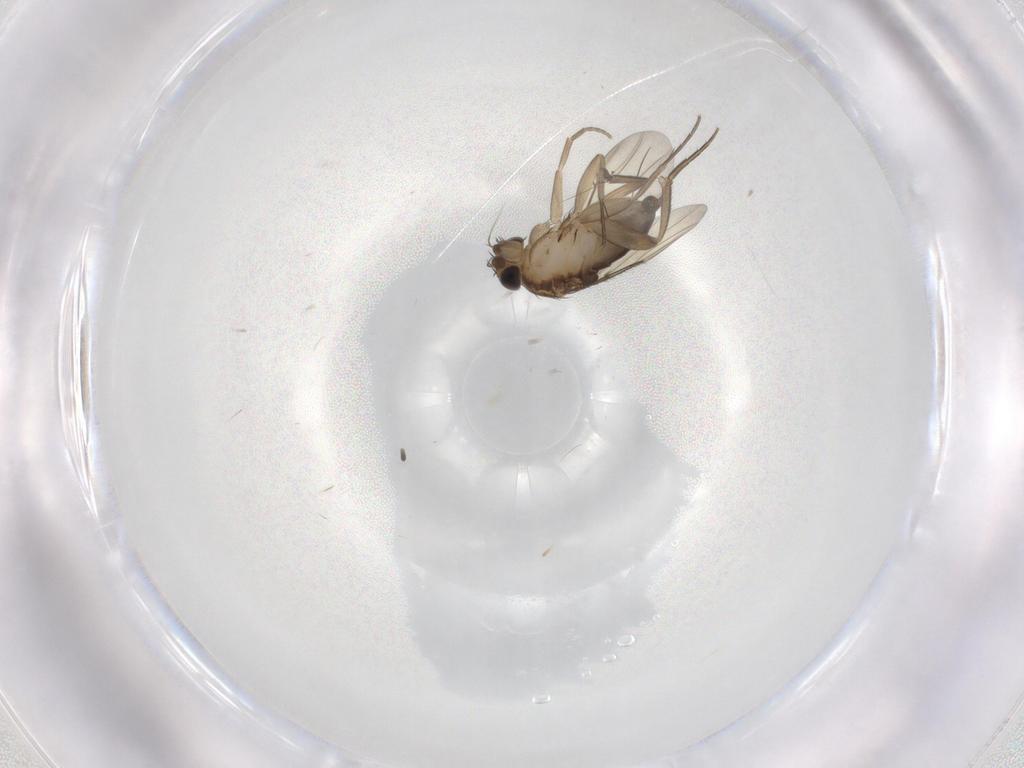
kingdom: Animalia
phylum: Arthropoda
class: Insecta
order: Diptera
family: Phoridae
